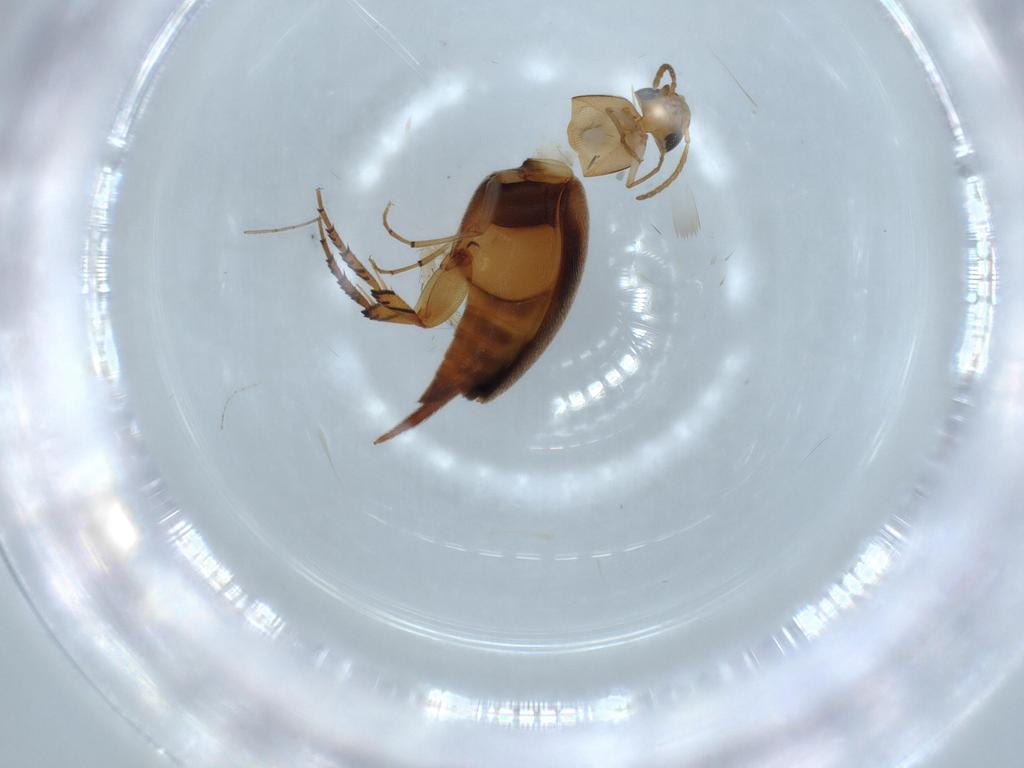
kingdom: Animalia
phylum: Arthropoda
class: Insecta
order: Coleoptera
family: Mordellidae
